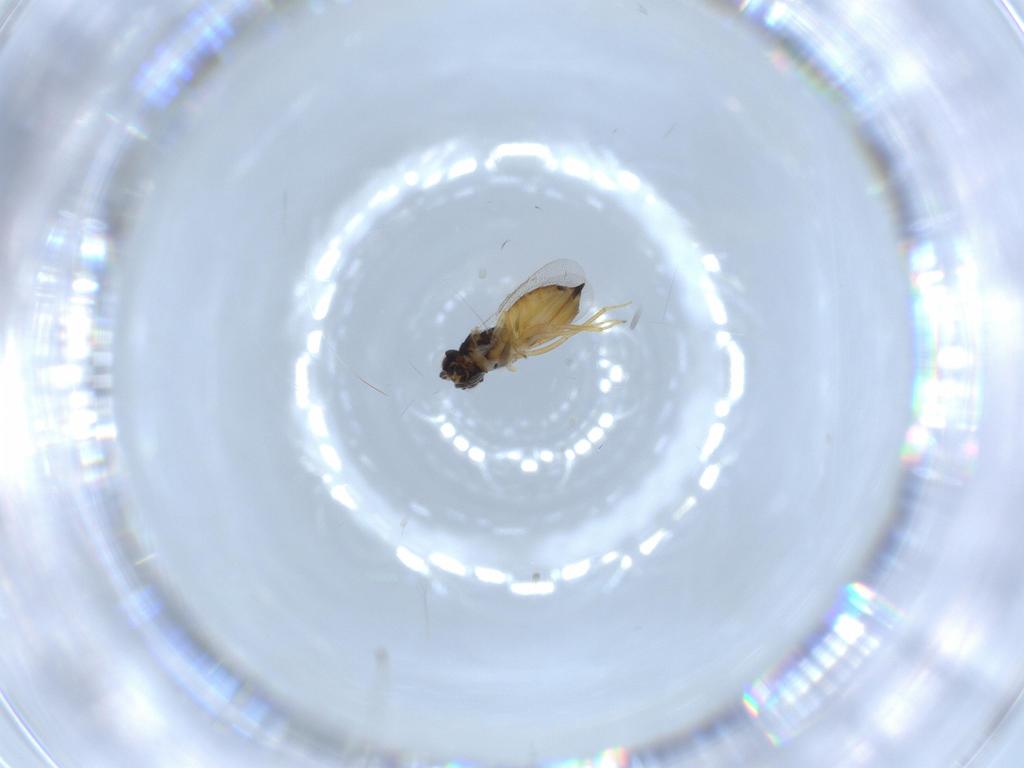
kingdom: Animalia
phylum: Arthropoda
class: Insecta
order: Hymenoptera
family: Eulophidae
